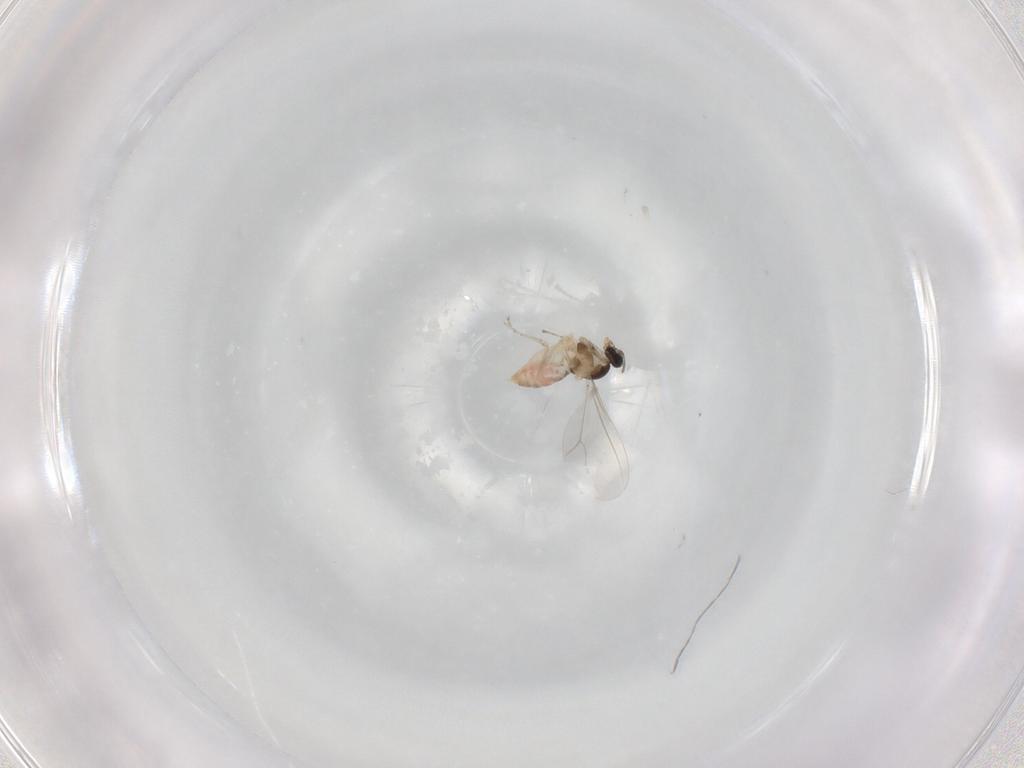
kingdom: Animalia
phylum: Arthropoda
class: Insecta
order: Diptera
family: Cecidomyiidae
